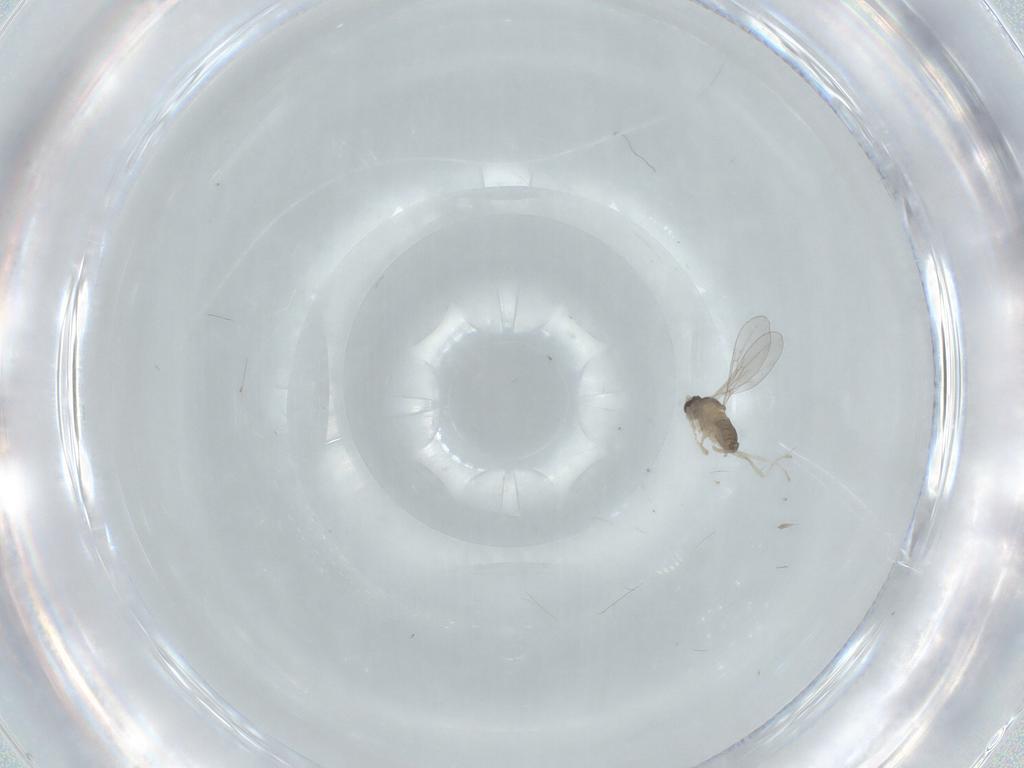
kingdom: Animalia
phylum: Arthropoda
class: Insecta
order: Diptera
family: Cecidomyiidae
